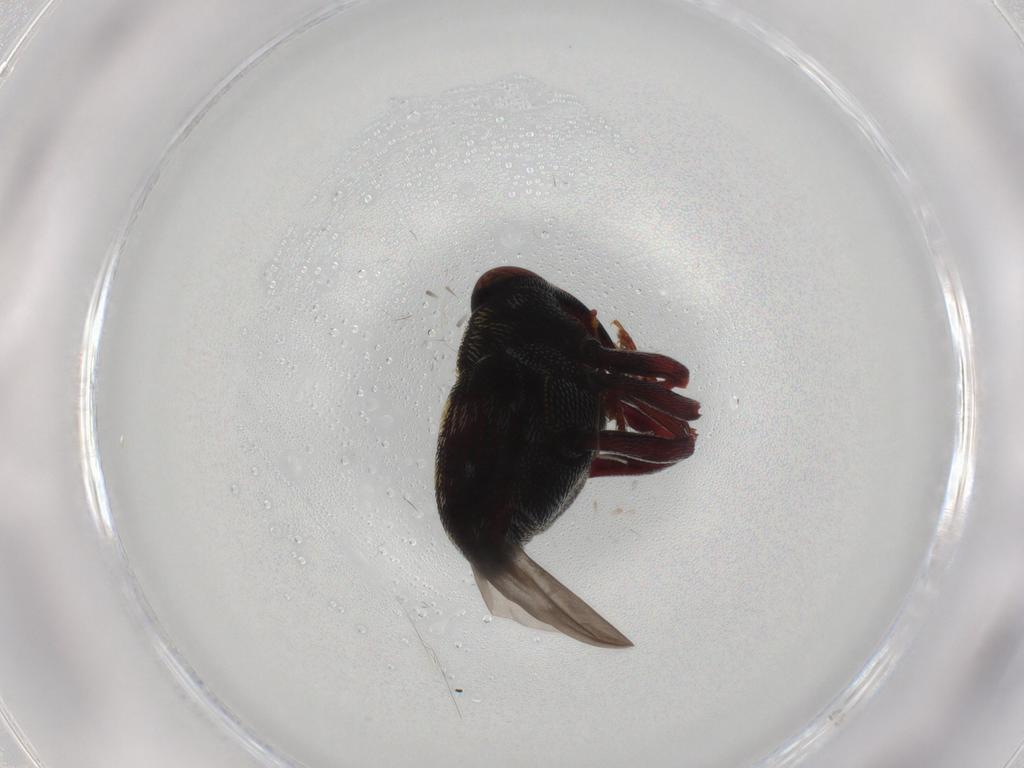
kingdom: Animalia
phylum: Arthropoda
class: Insecta
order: Coleoptera
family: Curculionidae
